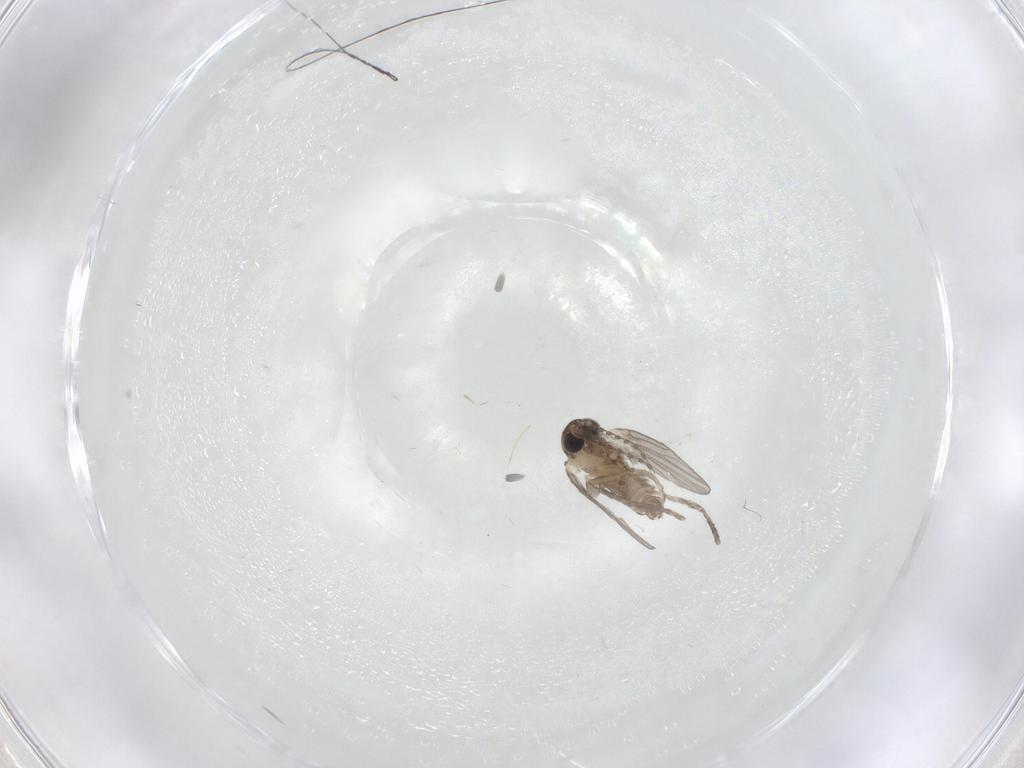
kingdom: Animalia
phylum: Arthropoda
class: Insecta
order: Diptera
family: Cecidomyiidae
